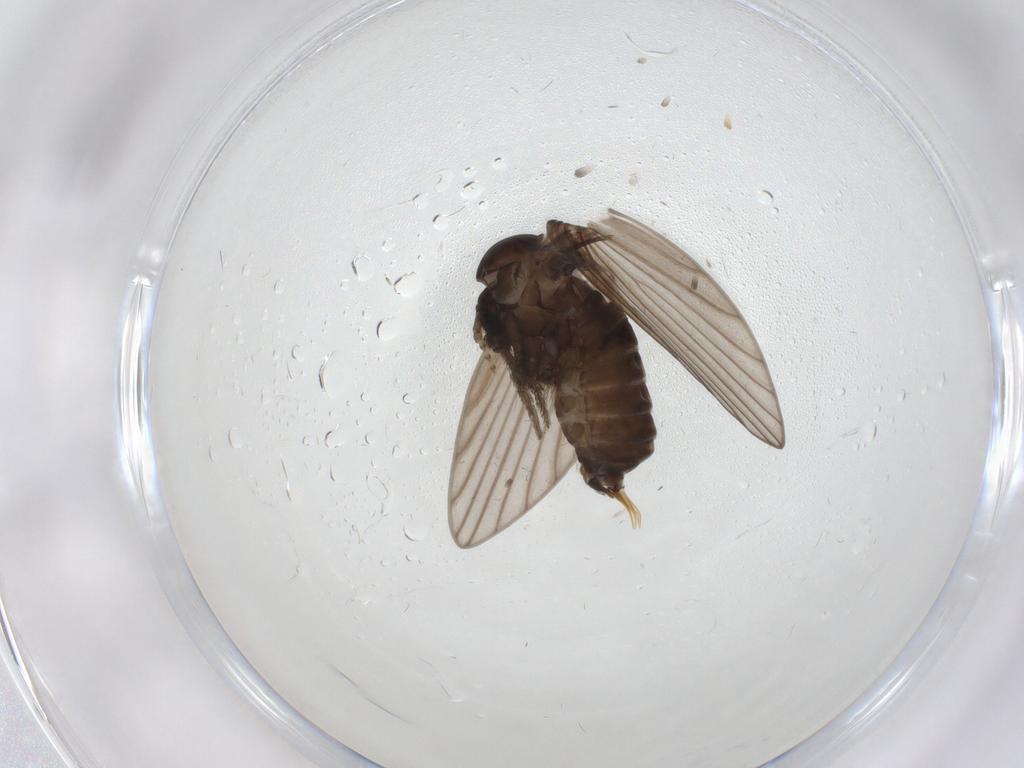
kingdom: Animalia
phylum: Arthropoda
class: Insecta
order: Diptera
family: Psychodidae
